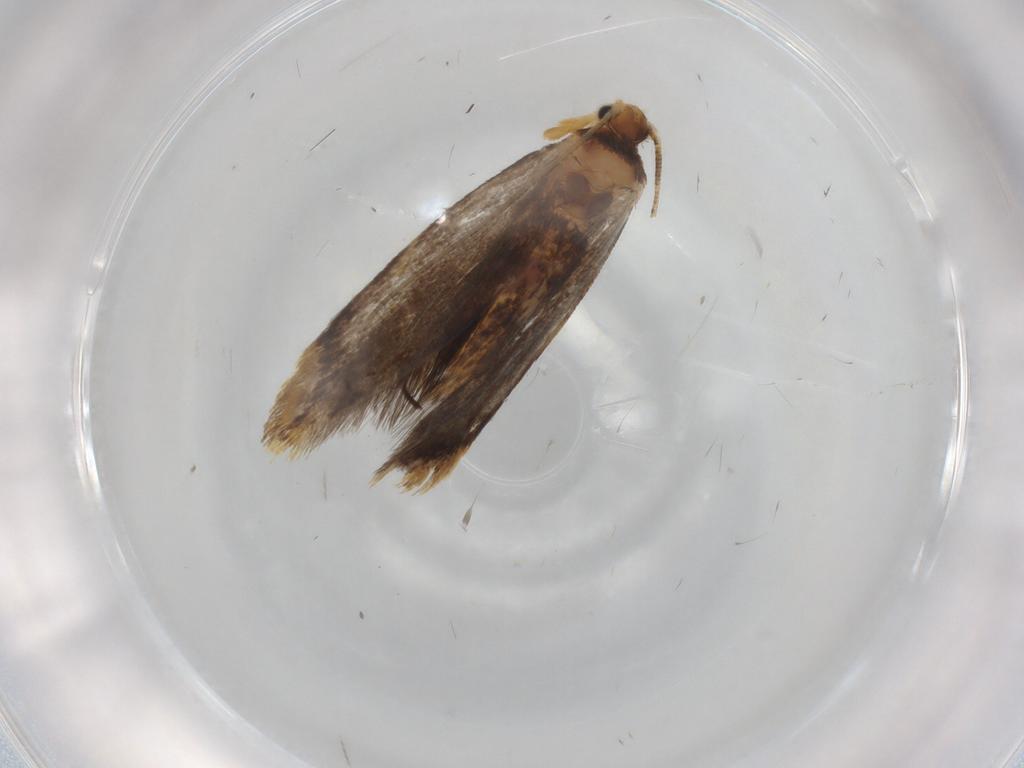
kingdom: Animalia
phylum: Arthropoda
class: Insecta
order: Lepidoptera
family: Dryadaulidae
